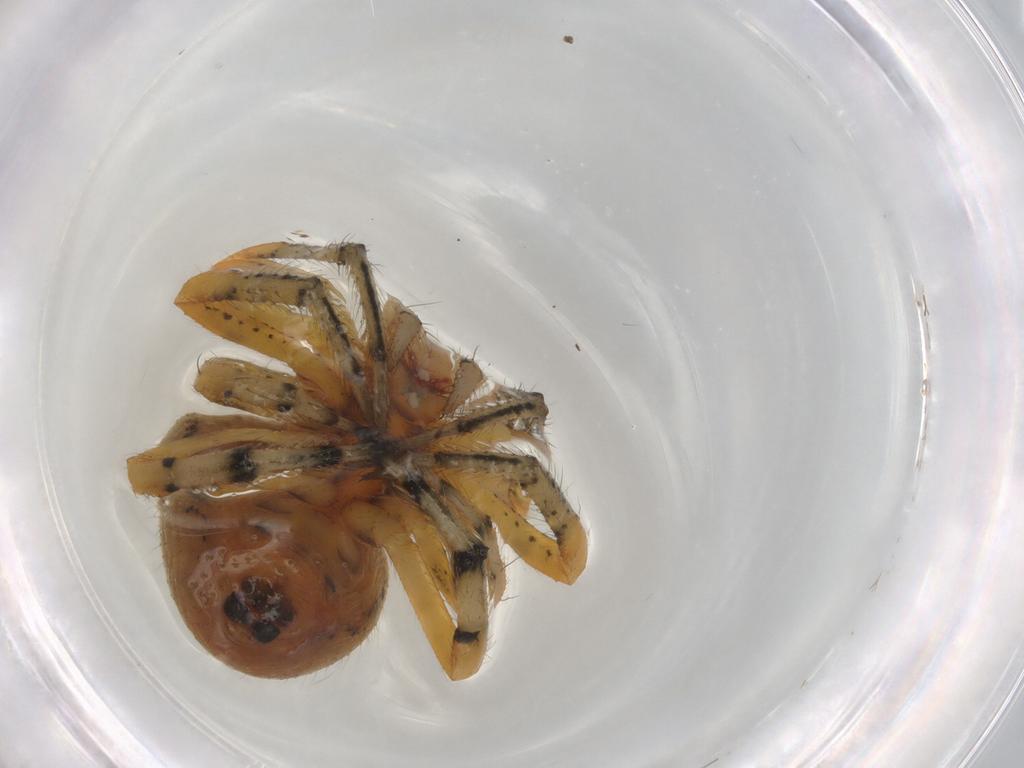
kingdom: Animalia
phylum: Arthropoda
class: Arachnida
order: Araneae
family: Araneidae
